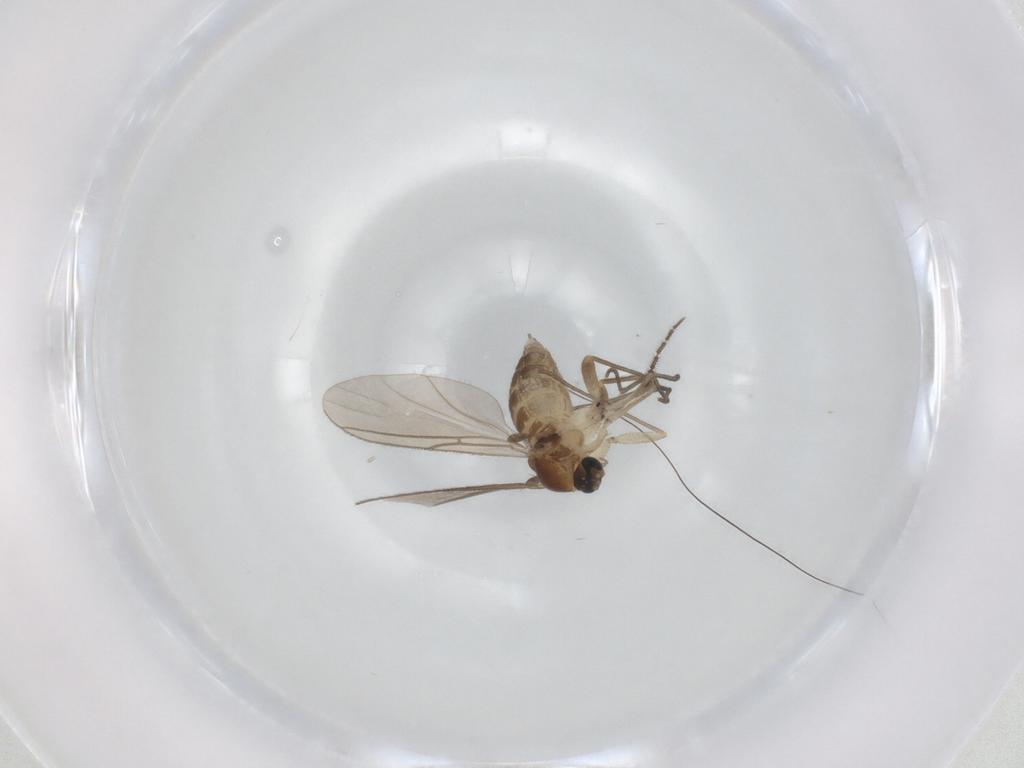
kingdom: Animalia
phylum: Arthropoda
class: Insecta
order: Diptera
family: Sciaridae
